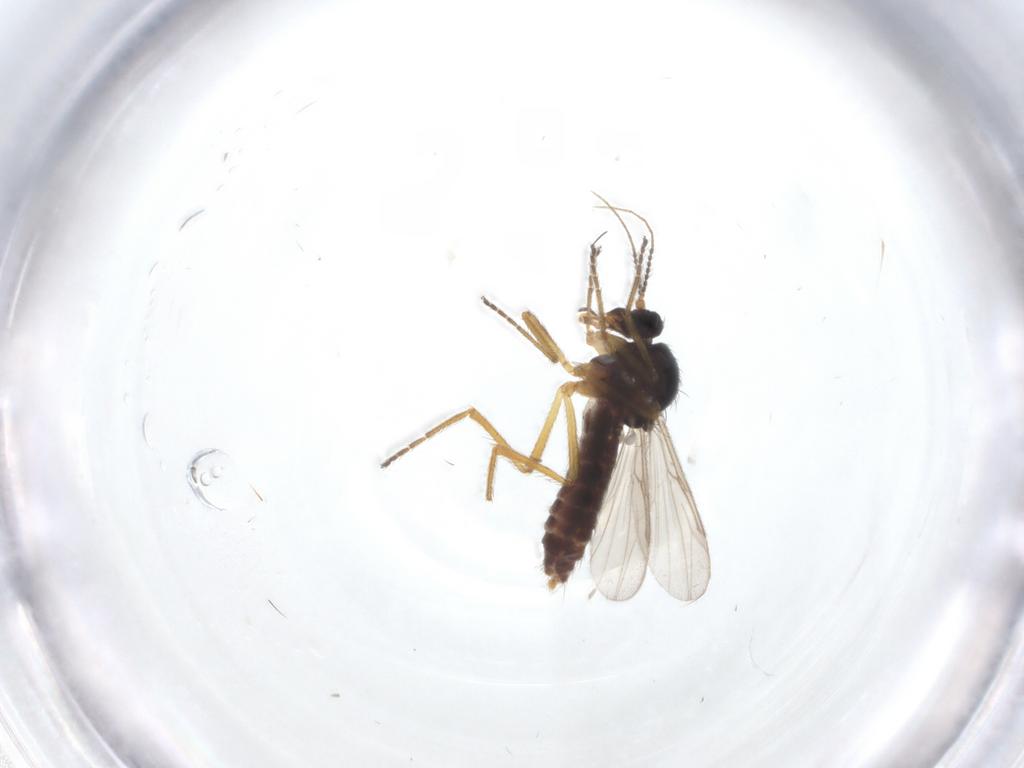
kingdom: Animalia
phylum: Arthropoda
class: Insecta
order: Diptera
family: Ceratopogonidae
